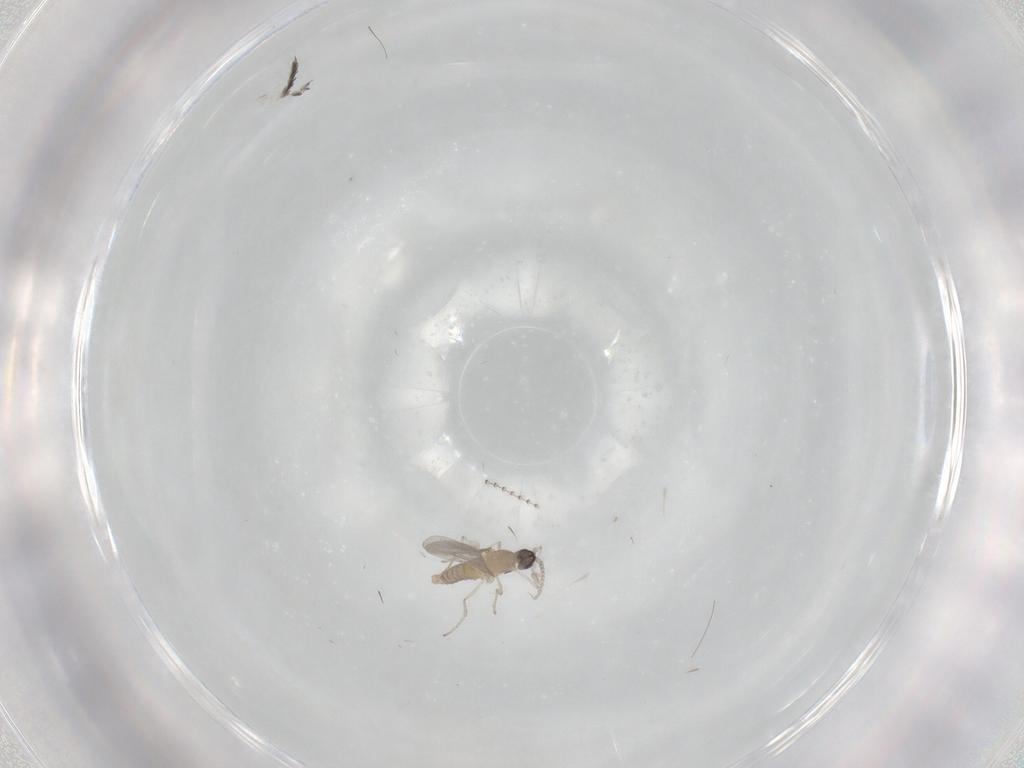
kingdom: Animalia
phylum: Arthropoda
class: Insecta
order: Diptera
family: Cecidomyiidae
